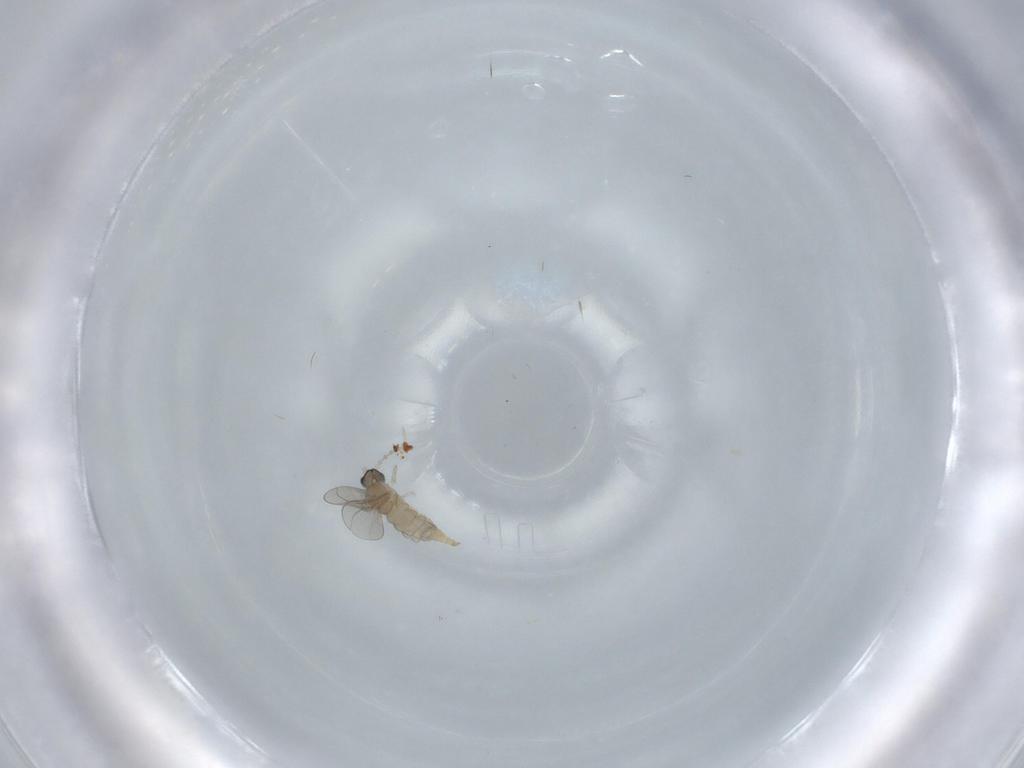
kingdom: Animalia
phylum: Arthropoda
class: Insecta
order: Diptera
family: Cecidomyiidae
